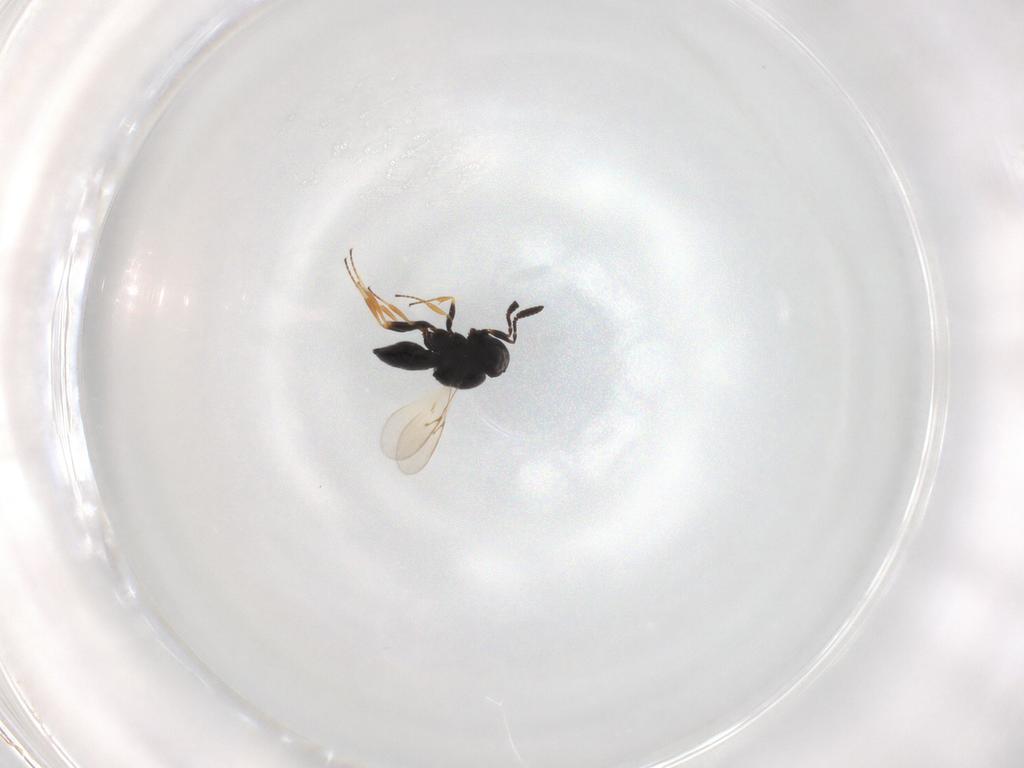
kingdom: Animalia
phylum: Arthropoda
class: Insecta
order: Hymenoptera
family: Scelionidae
